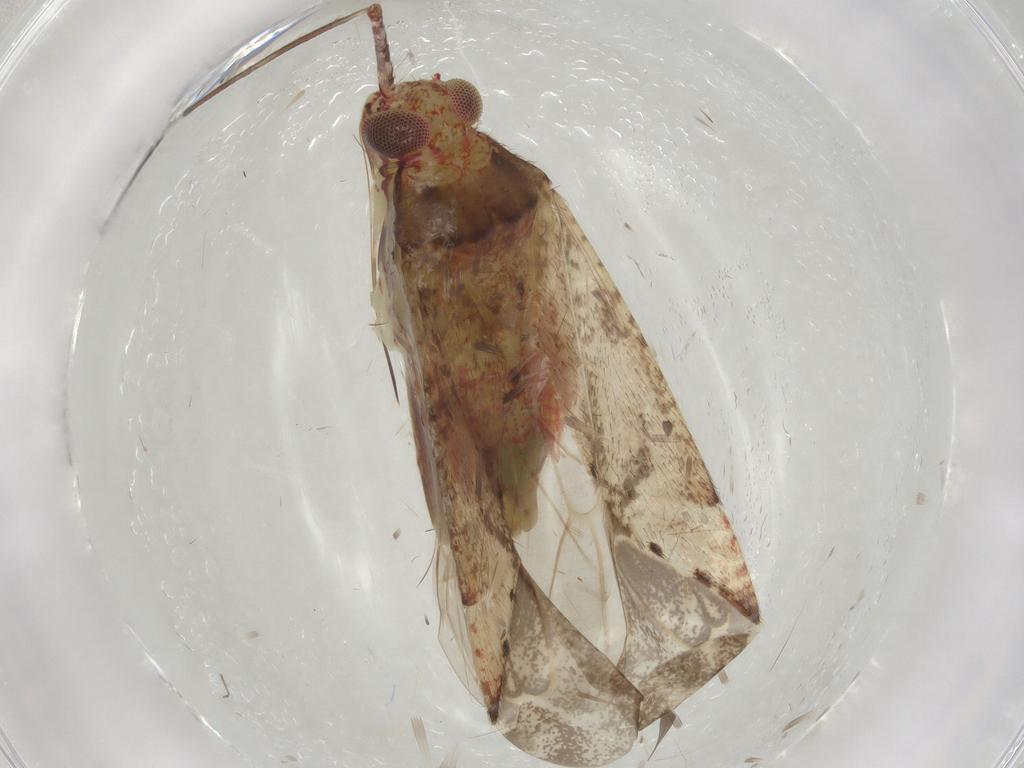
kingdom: Animalia
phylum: Arthropoda
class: Insecta
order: Hemiptera
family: Miridae
